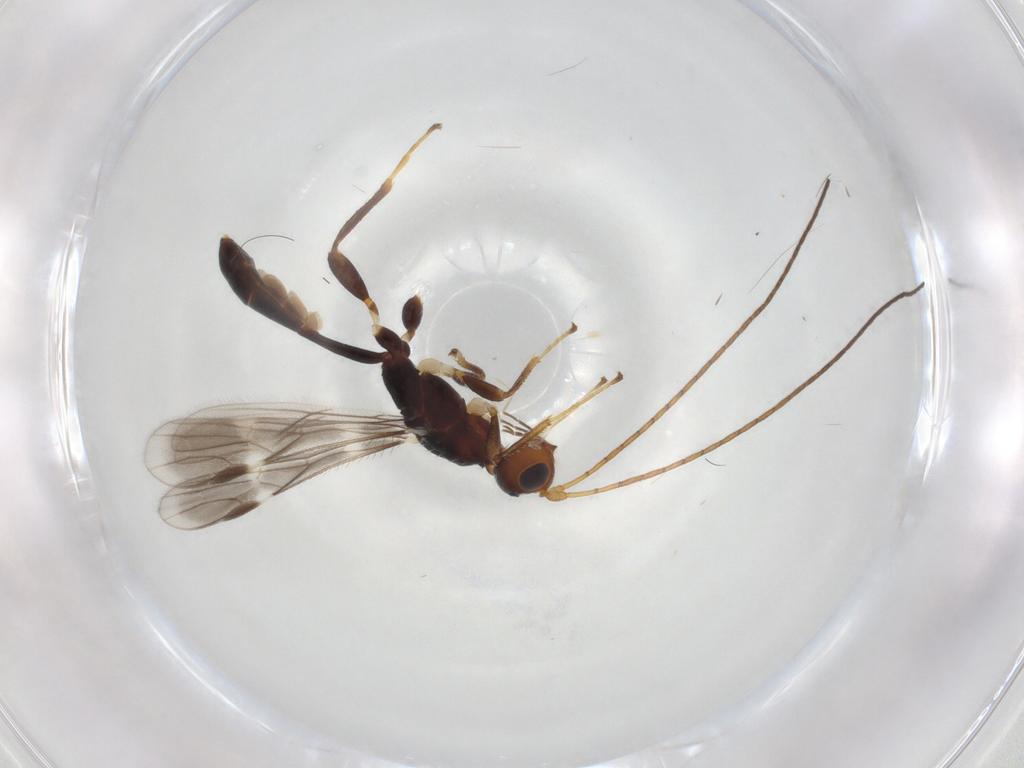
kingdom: Animalia
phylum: Arthropoda
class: Insecta
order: Hymenoptera
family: Braconidae
